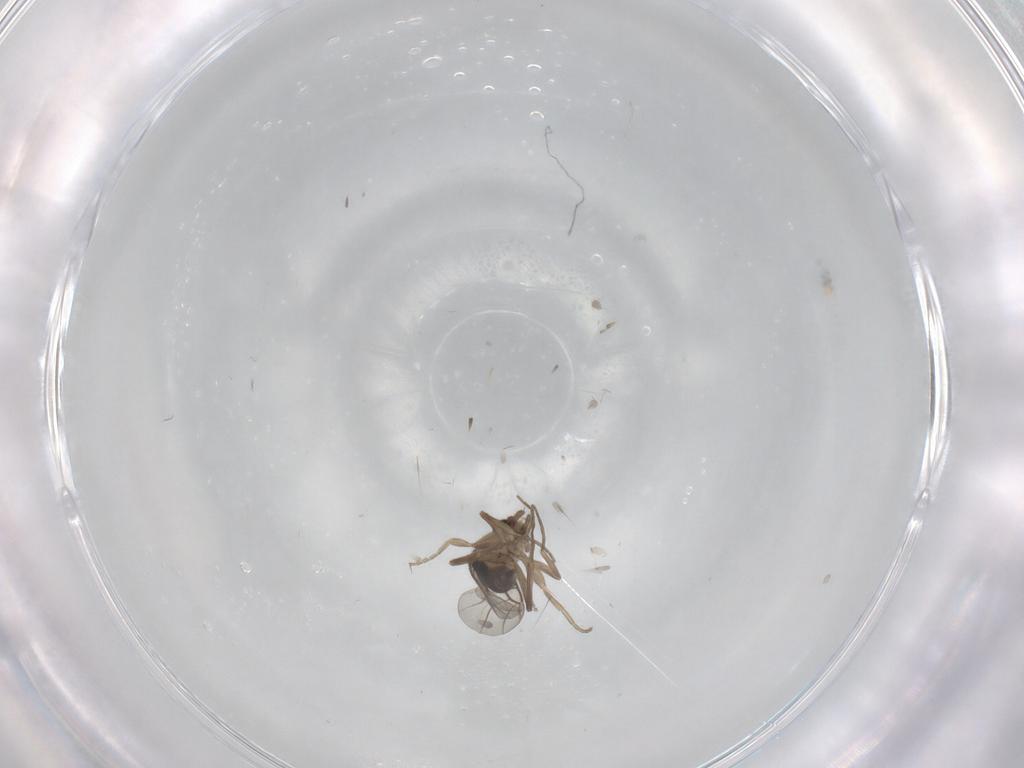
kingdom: Animalia
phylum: Arthropoda
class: Insecta
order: Diptera
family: Phoridae
